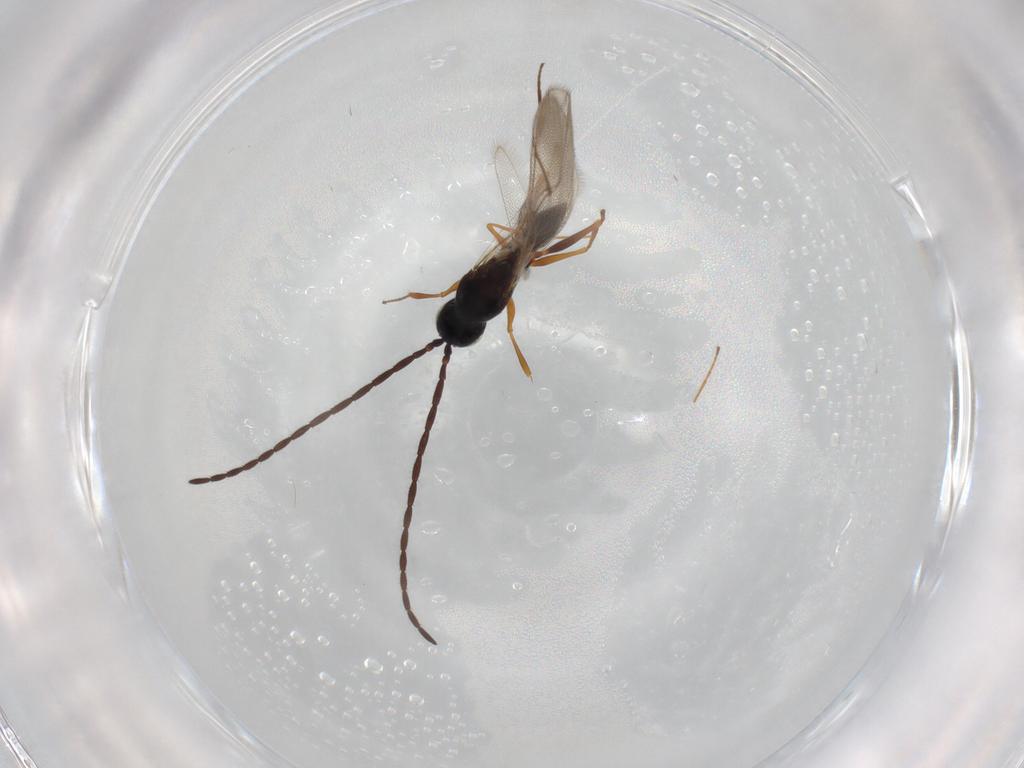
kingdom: Animalia
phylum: Arthropoda
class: Insecta
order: Hymenoptera
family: Figitidae
